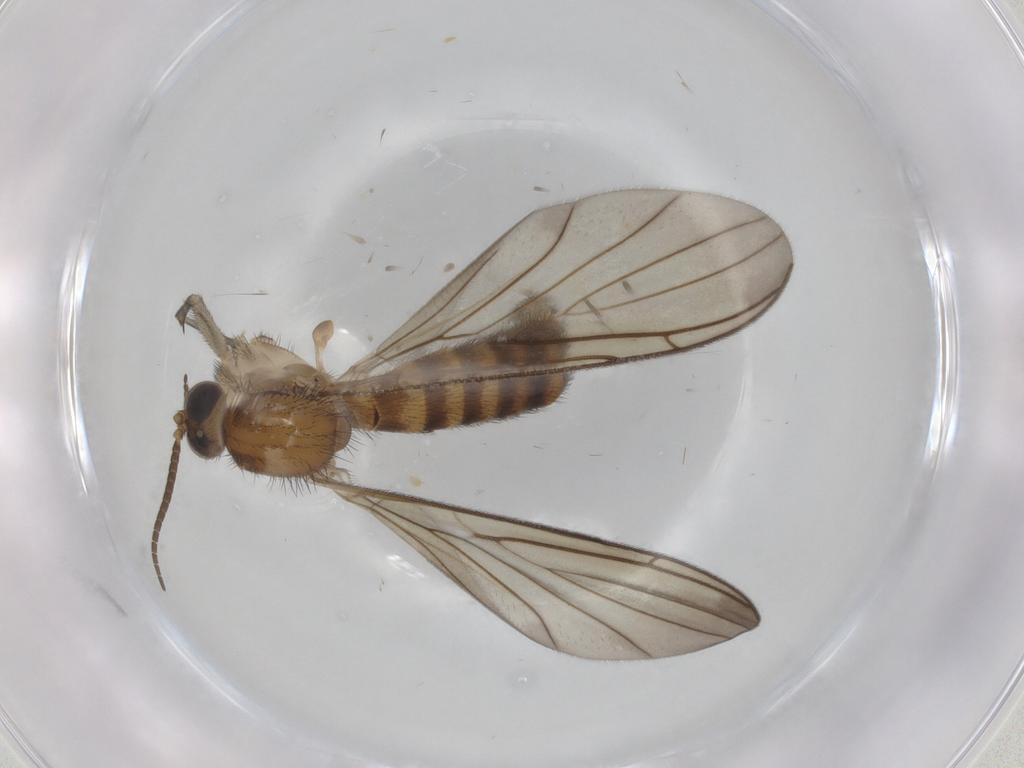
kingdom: Animalia
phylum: Arthropoda
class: Insecta
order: Diptera
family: Keroplatidae
